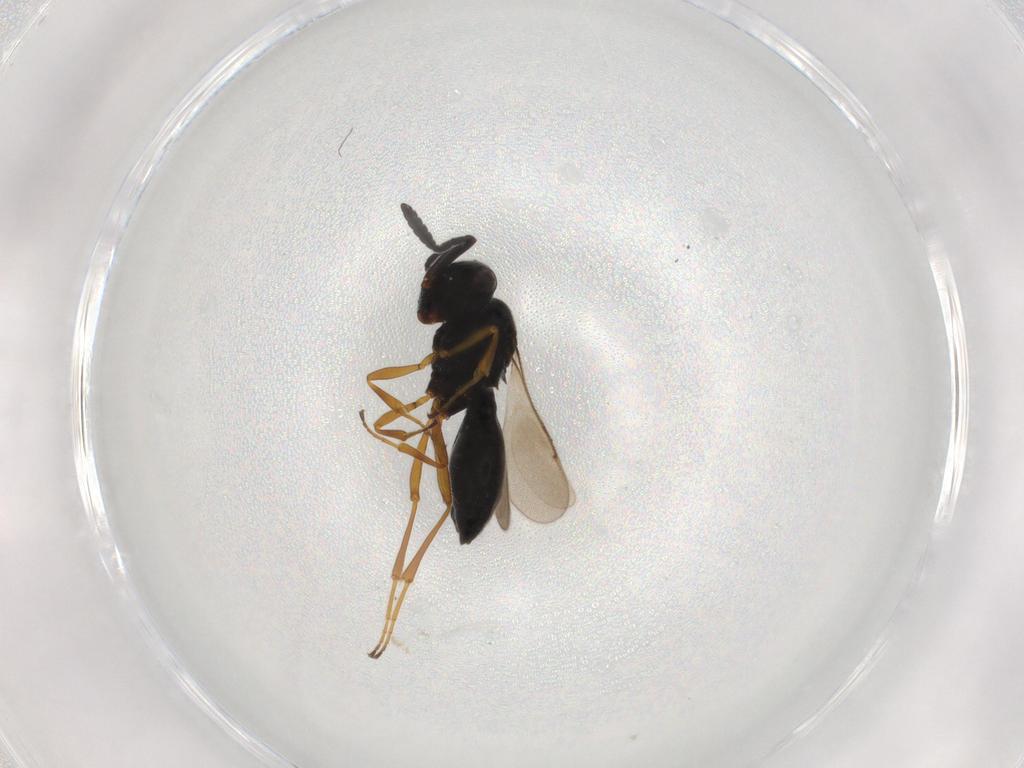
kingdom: Animalia
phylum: Arthropoda
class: Insecta
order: Hymenoptera
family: Scelionidae
